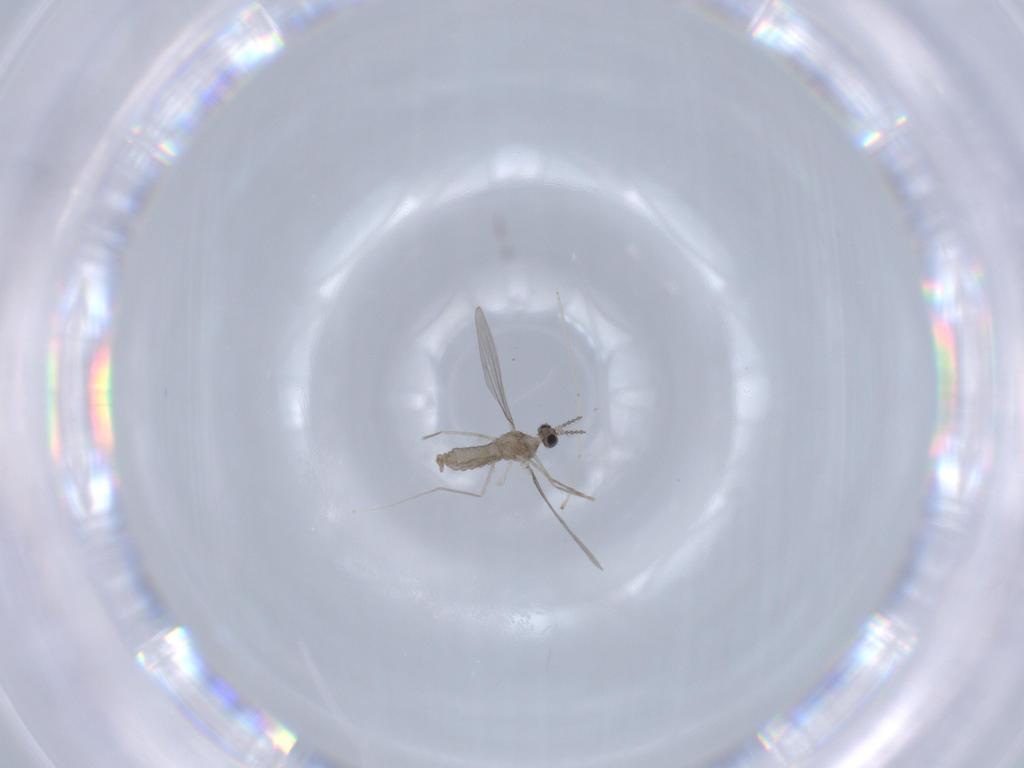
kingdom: Animalia
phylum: Arthropoda
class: Insecta
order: Diptera
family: Cecidomyiidae
